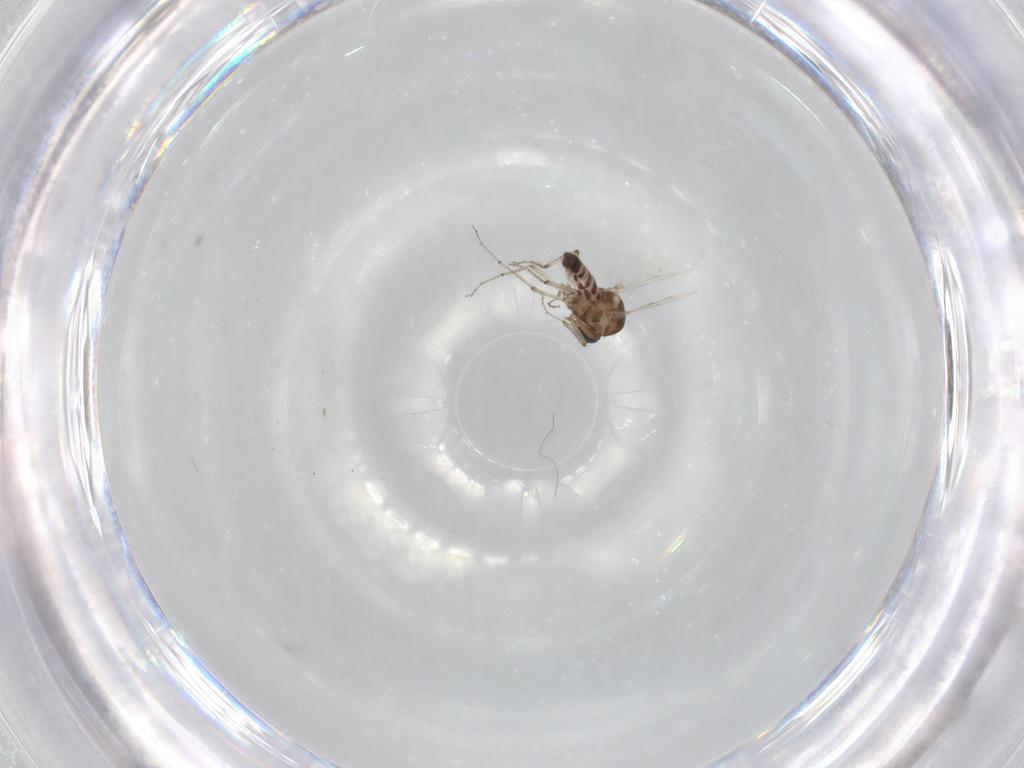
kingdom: Animalia
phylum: Arthropoda
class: Insecta
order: Diptera
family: Ceratopogonidae
